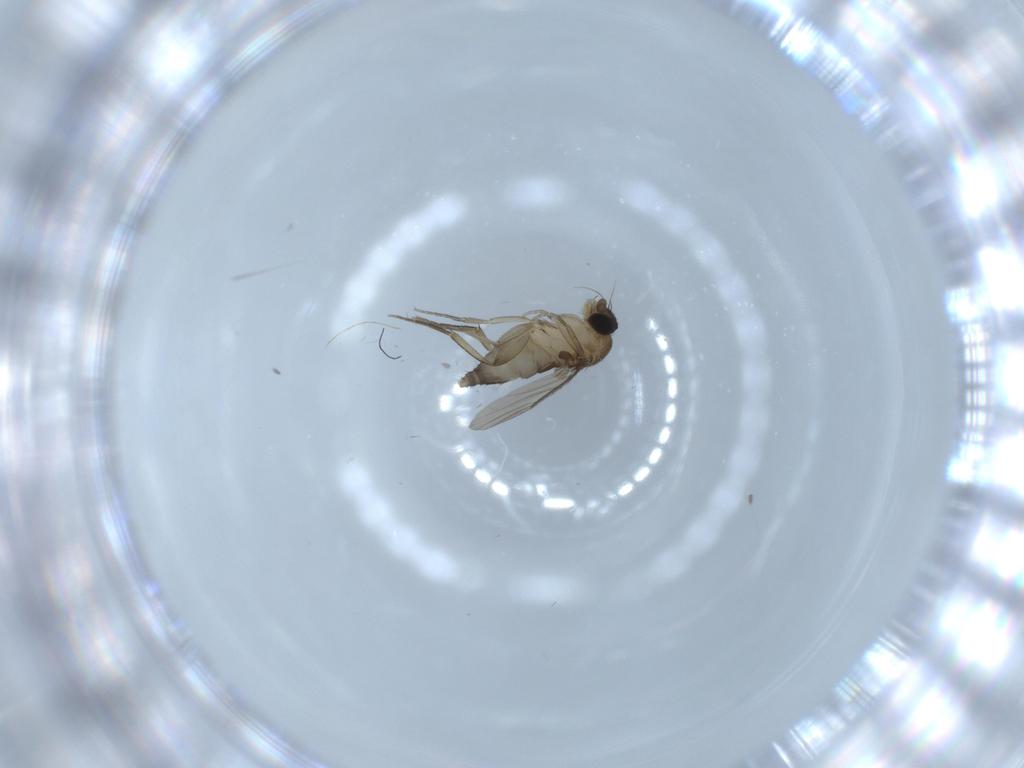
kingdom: Animalia
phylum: Arthropoda
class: Insecta
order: Diptera
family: Phoridae
